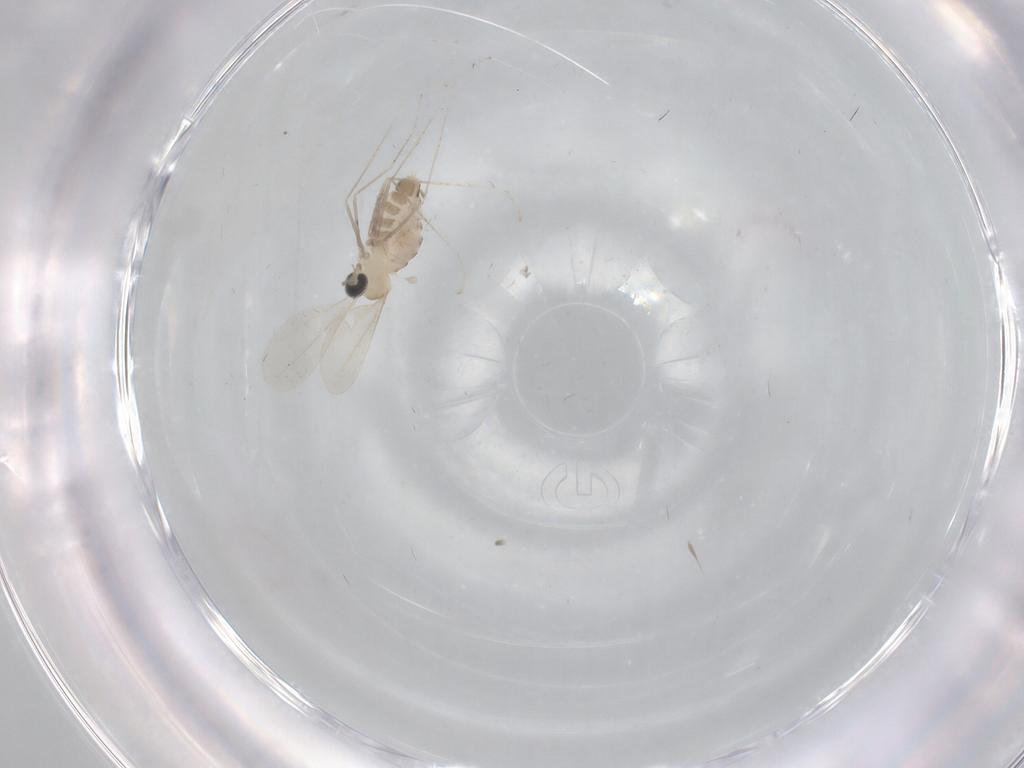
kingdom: Animalia
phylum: Arthropoda
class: Insecta
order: Diptera
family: Cecidomyiidae
